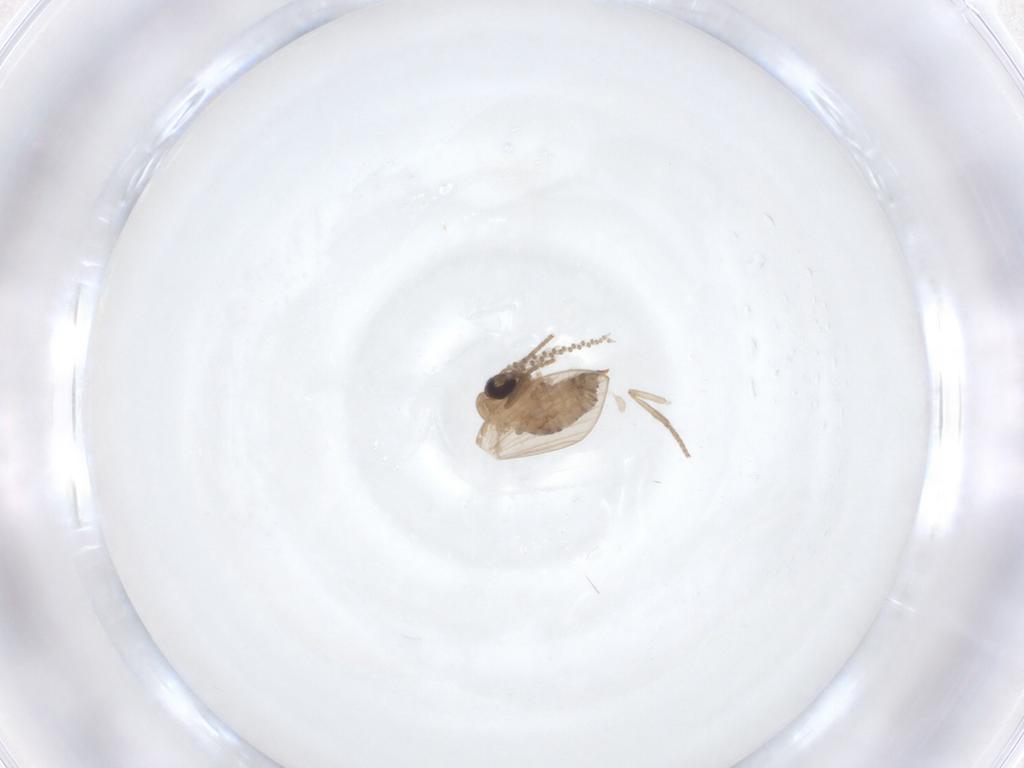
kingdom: Animalia
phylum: Arthropoda
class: Insecta
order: Diptera
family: Psychodidae
